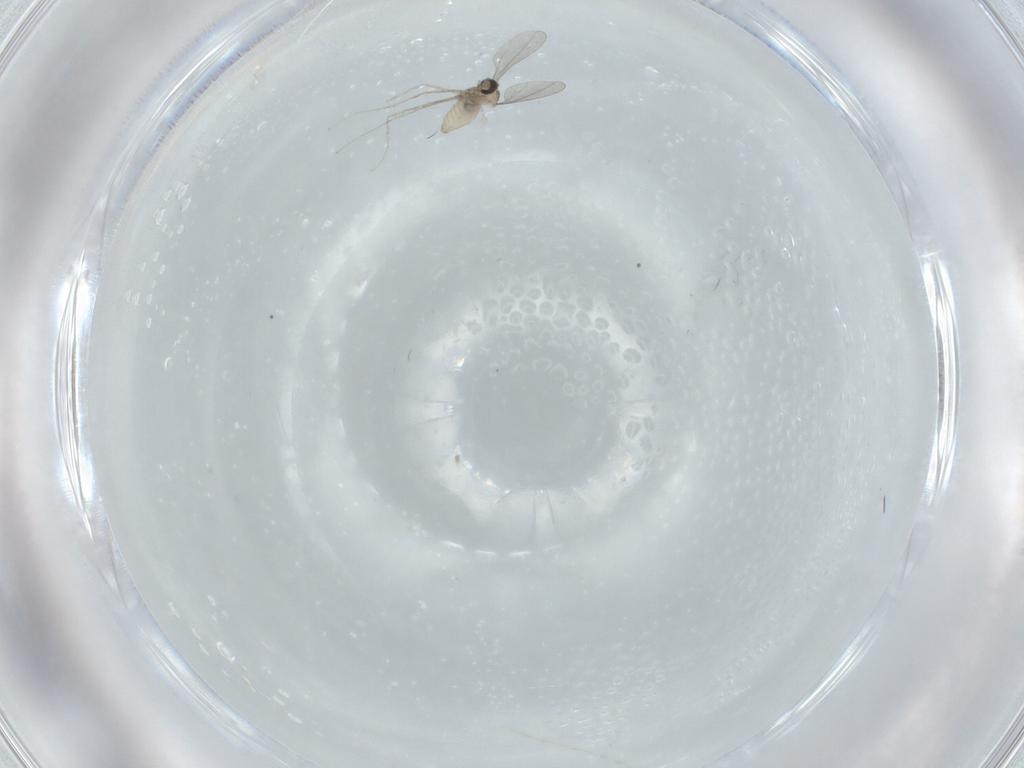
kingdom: Animalia
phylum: Arthropoda
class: Insecta
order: Diptera
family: Cecidomyiidae
